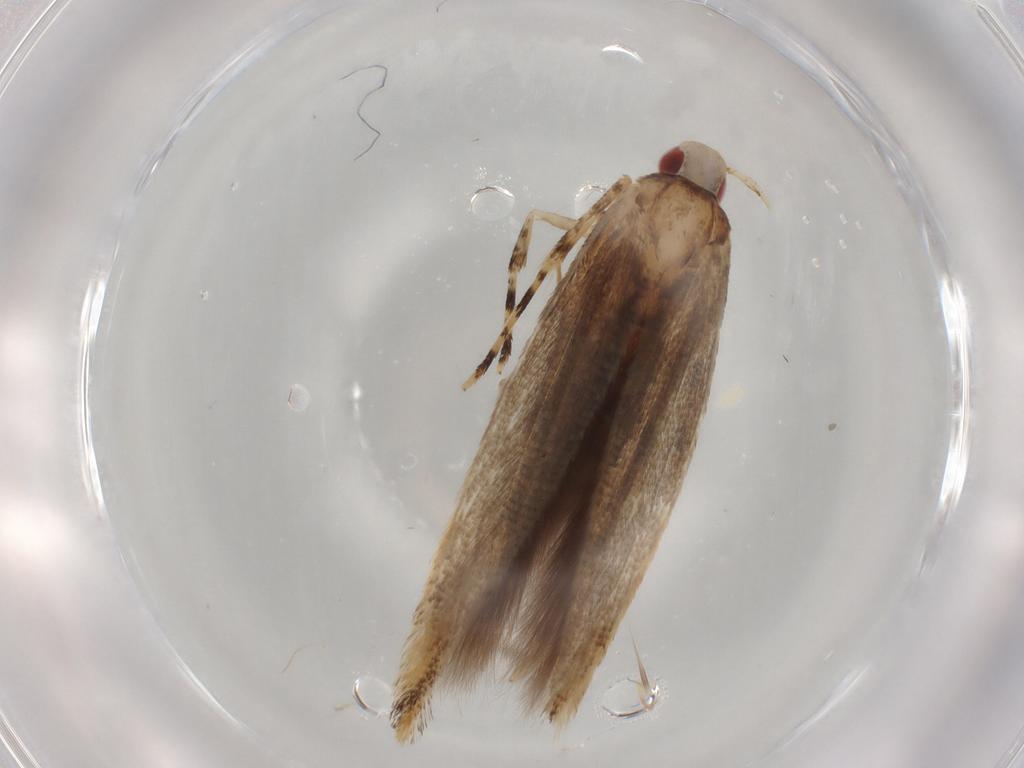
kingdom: Animalia
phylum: Arthropoda
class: Insecta
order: Lepidoptera
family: Cosmopterigidae
